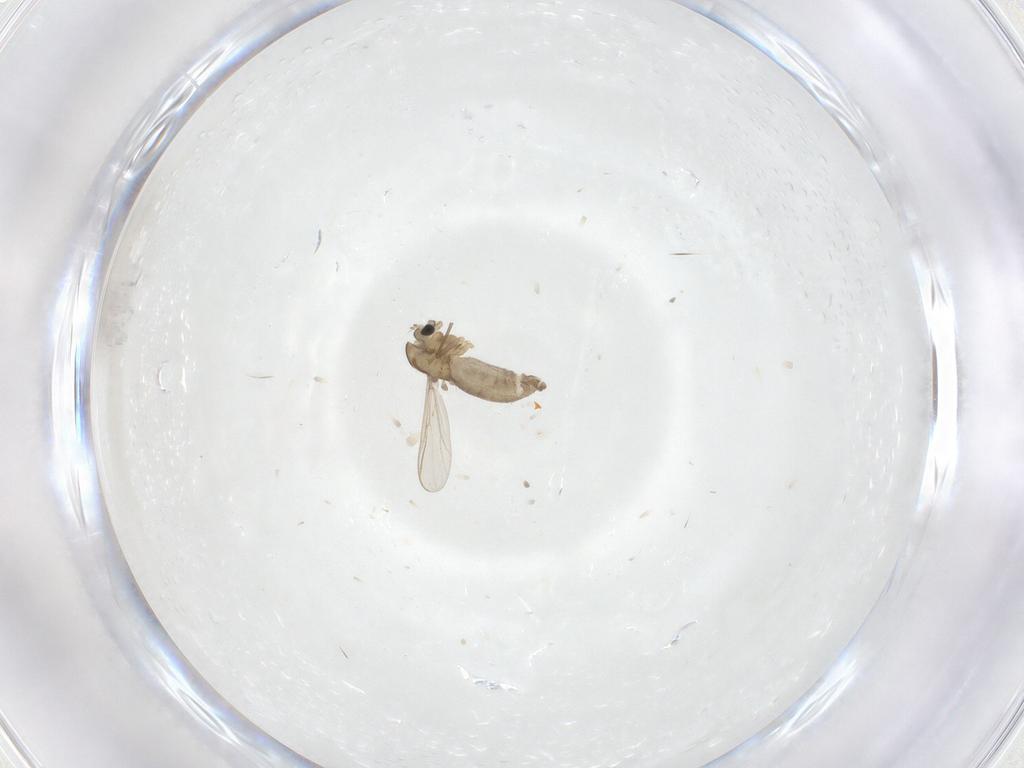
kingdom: Animalia
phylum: Arthropoda
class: Insecta
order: Diptera
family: Chironomidae
